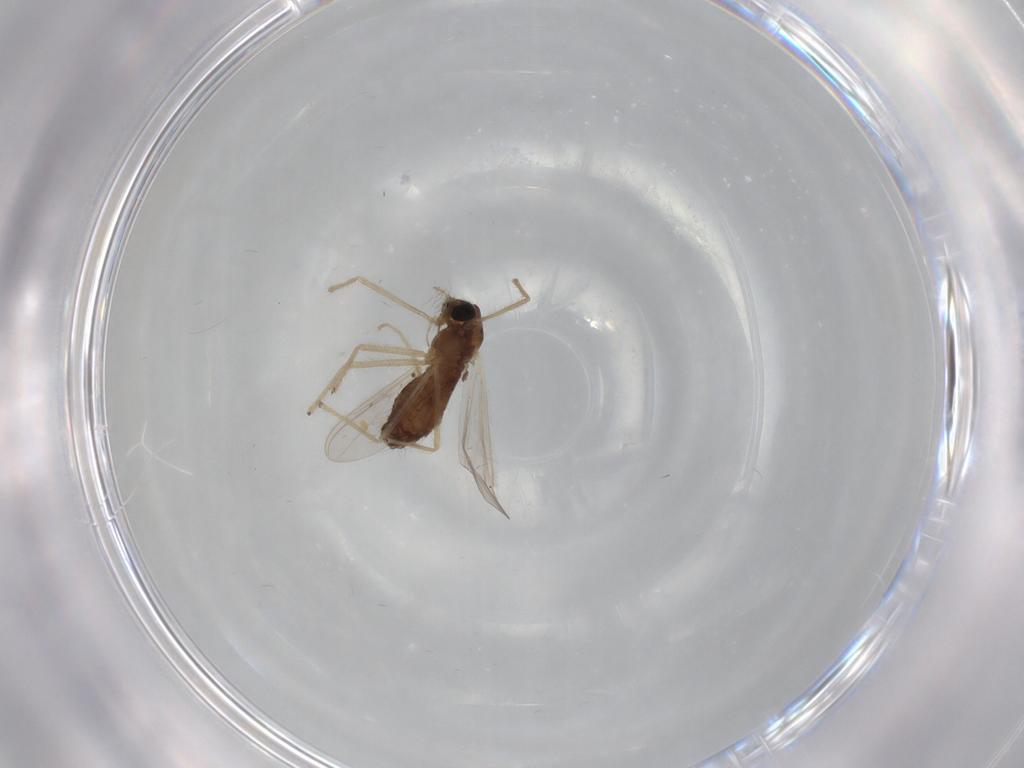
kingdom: Animalia
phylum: Arthropoda
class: Insecta
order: Diptera
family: Chironomidae
